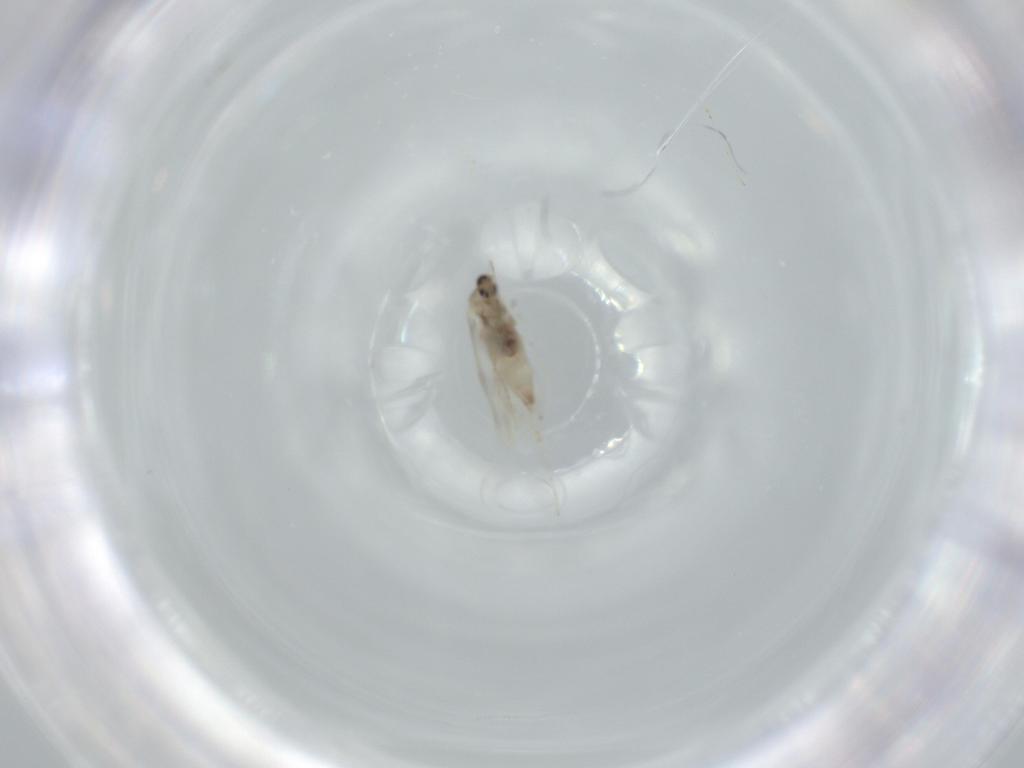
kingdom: Animalia
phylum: Arthropoda
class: Insecta
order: Diptera
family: Cecidomyiidae
